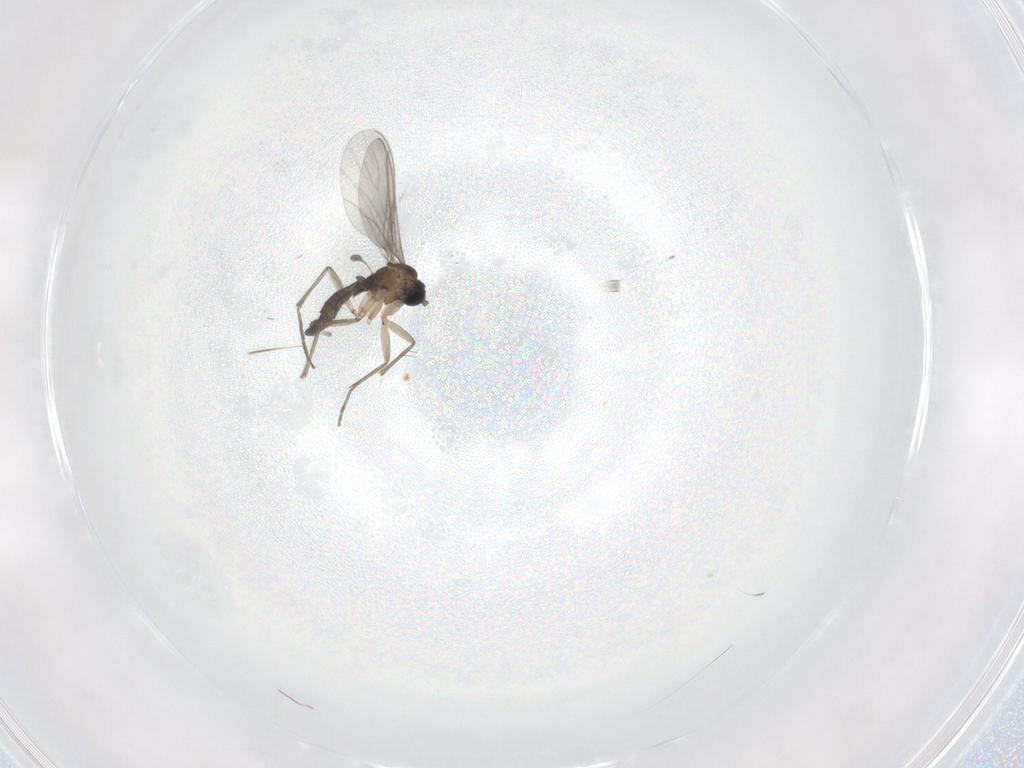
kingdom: Animalia
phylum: Arthropoda
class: Insecta
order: Diptera
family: Sciaridae
